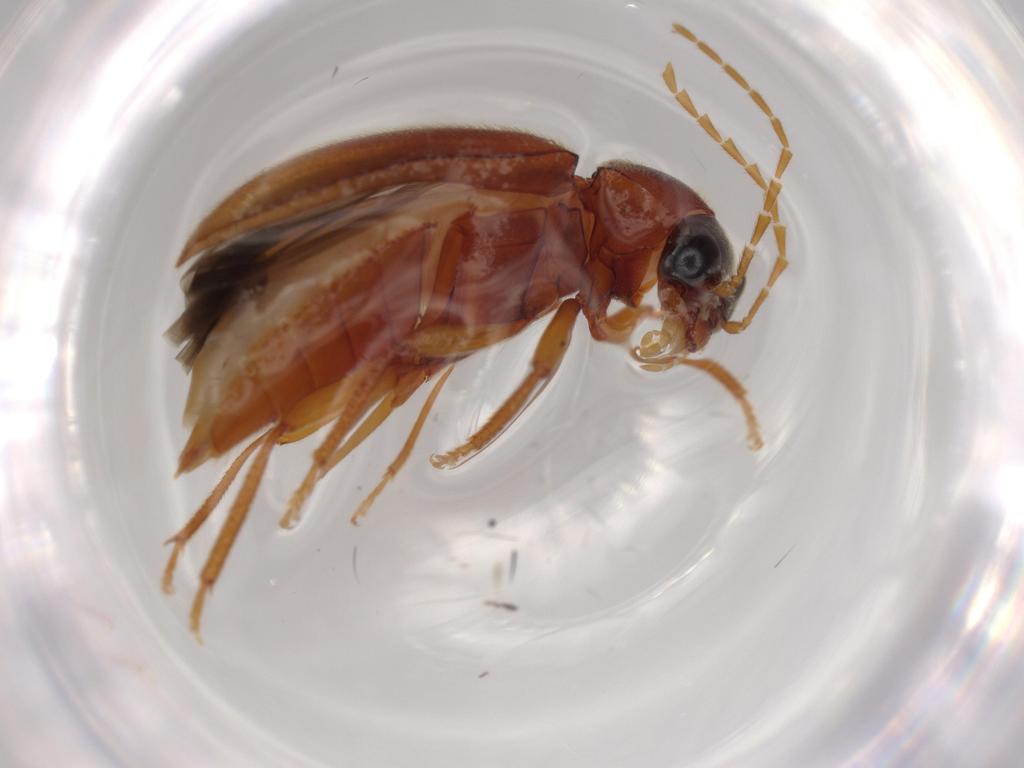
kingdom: Animalia
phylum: Arthropoda
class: Insecta
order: Coleoptera
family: Ptilodactylidae
